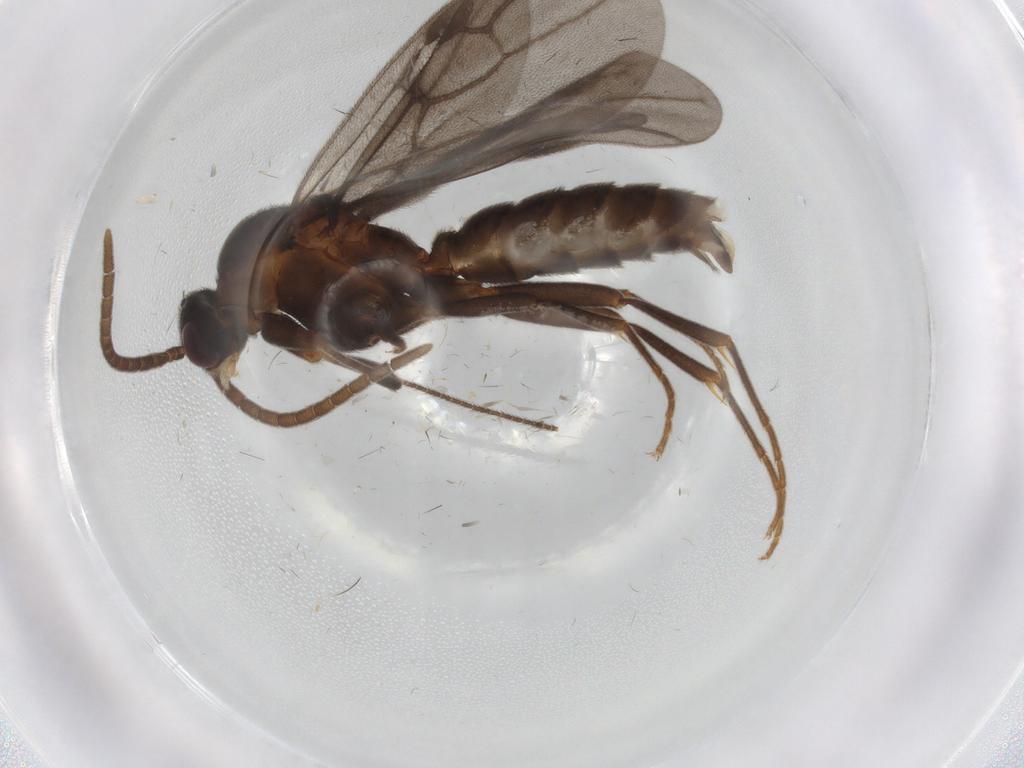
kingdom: Animalia
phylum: Arthropoda
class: Insecta
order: Hymenoptera
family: Formicidae
